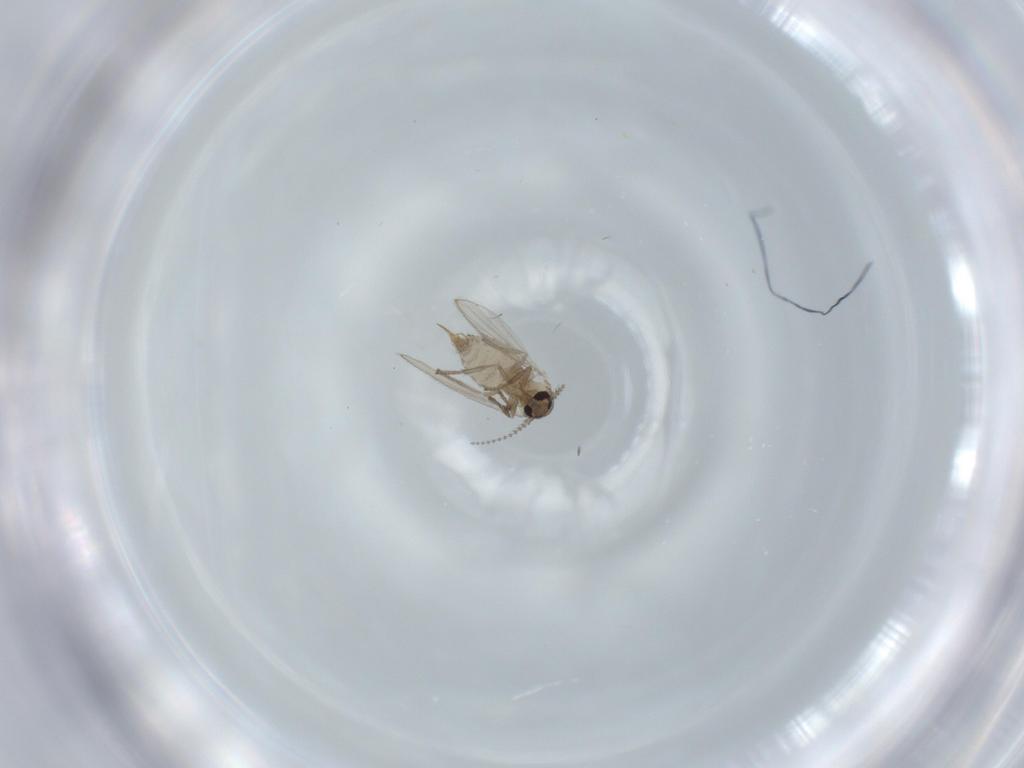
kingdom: Animalia
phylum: Arthropoda
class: Insecta
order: Diptera
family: Psychodidae
